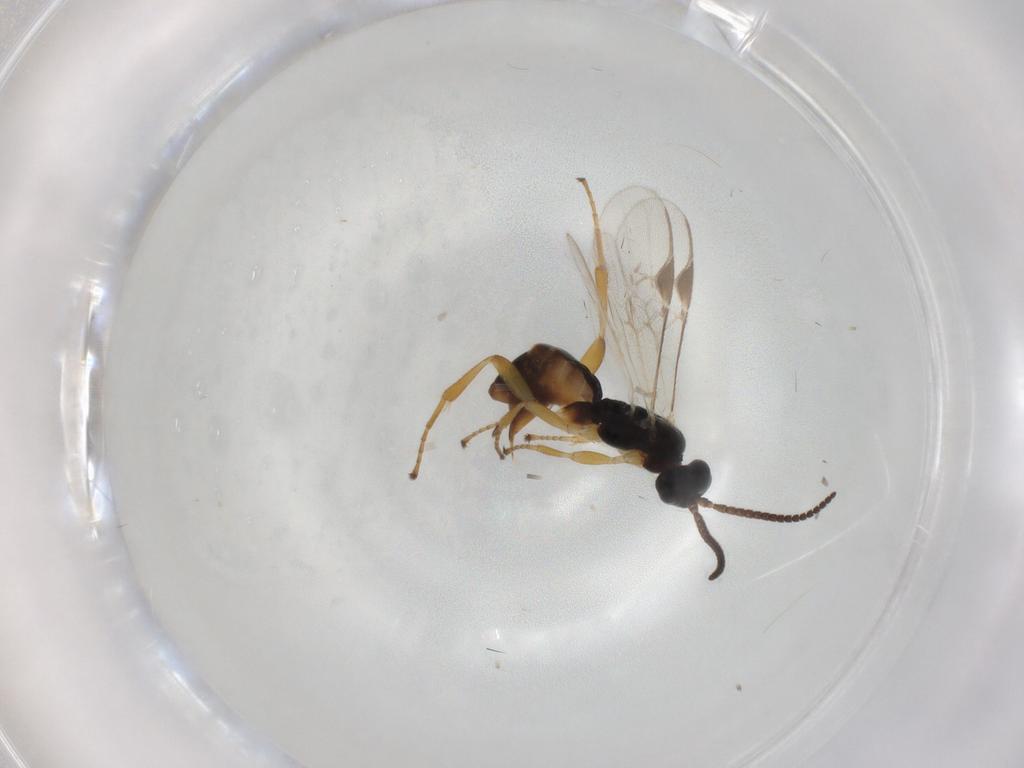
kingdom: Animalia
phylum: Arthropoda
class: Insecta
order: Hymenoptera
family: Braconidae
